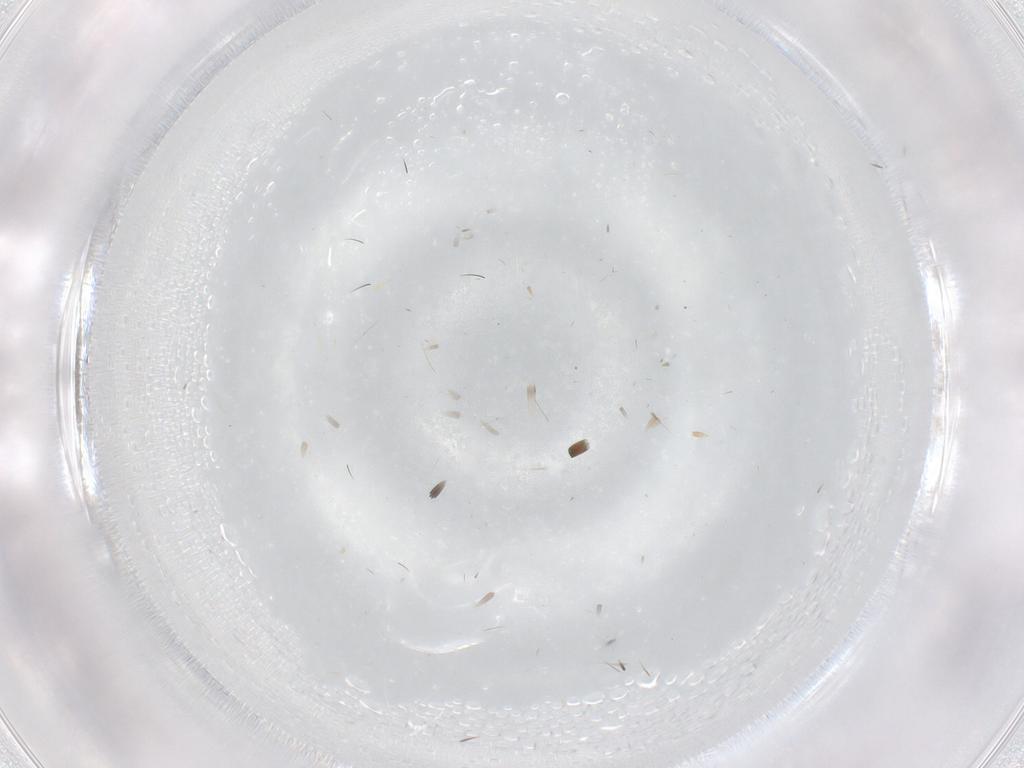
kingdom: Animalia
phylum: Arthropoda
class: Insecta
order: Diptera
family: Limoniidae
